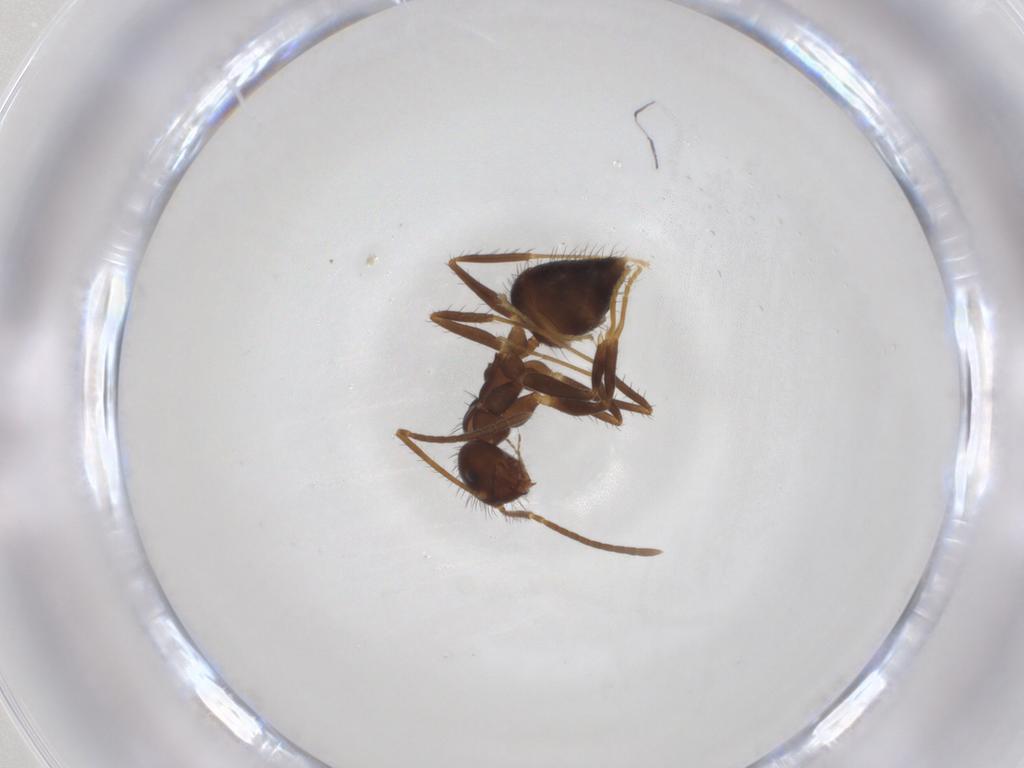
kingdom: Animalia
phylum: Arthropoda
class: Insecta
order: Hymenoptera
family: Formicidae
